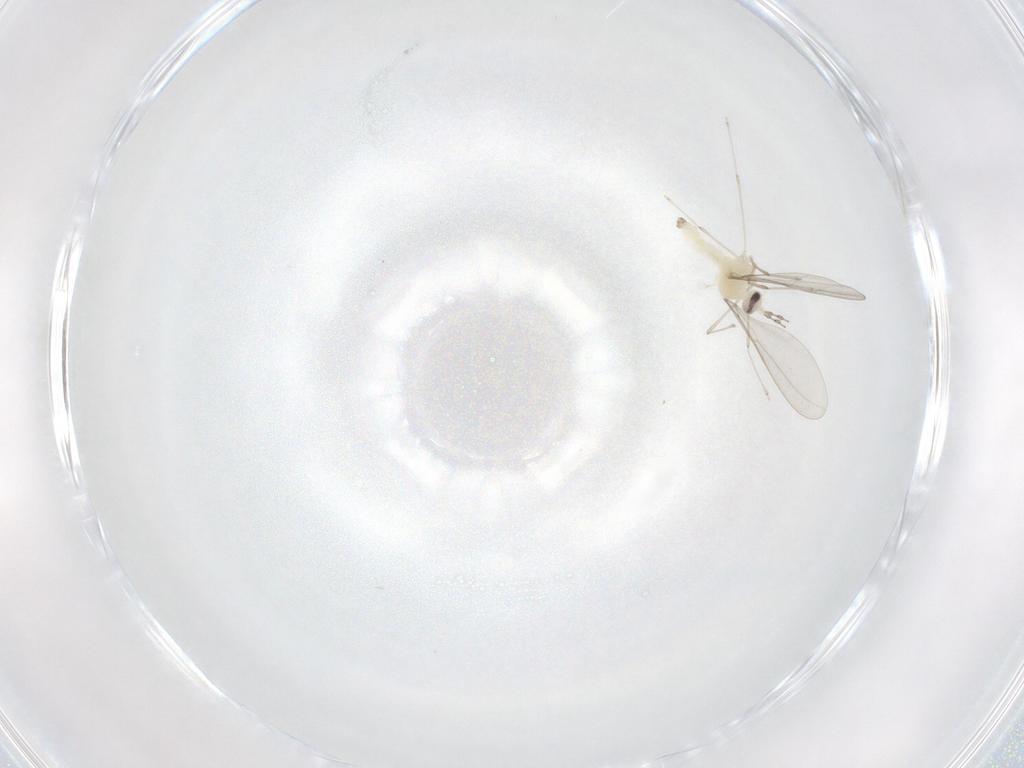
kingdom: Animalia
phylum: Arthropoda
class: Insecta
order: Diptera
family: Cecidomyiidae
